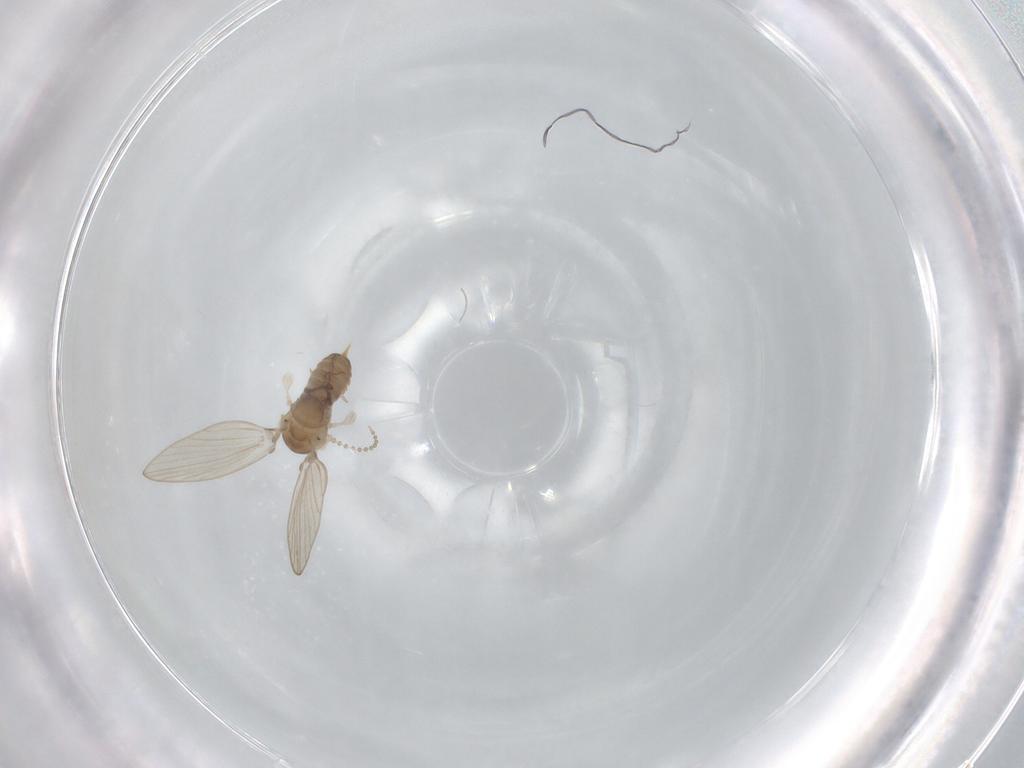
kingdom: Animalia
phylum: Arthropoda
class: Insecta
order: Diptera
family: Psychodidae
